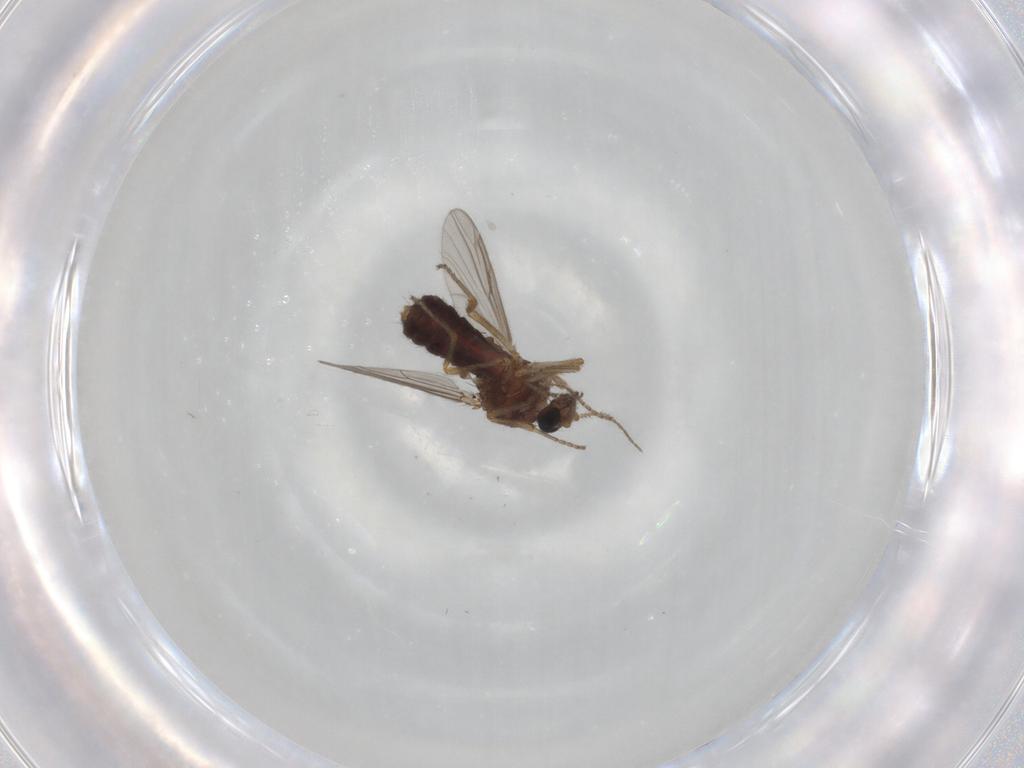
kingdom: Animalia
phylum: Arthropoda
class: Insecta
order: Diptera
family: Ceratopogonidae
